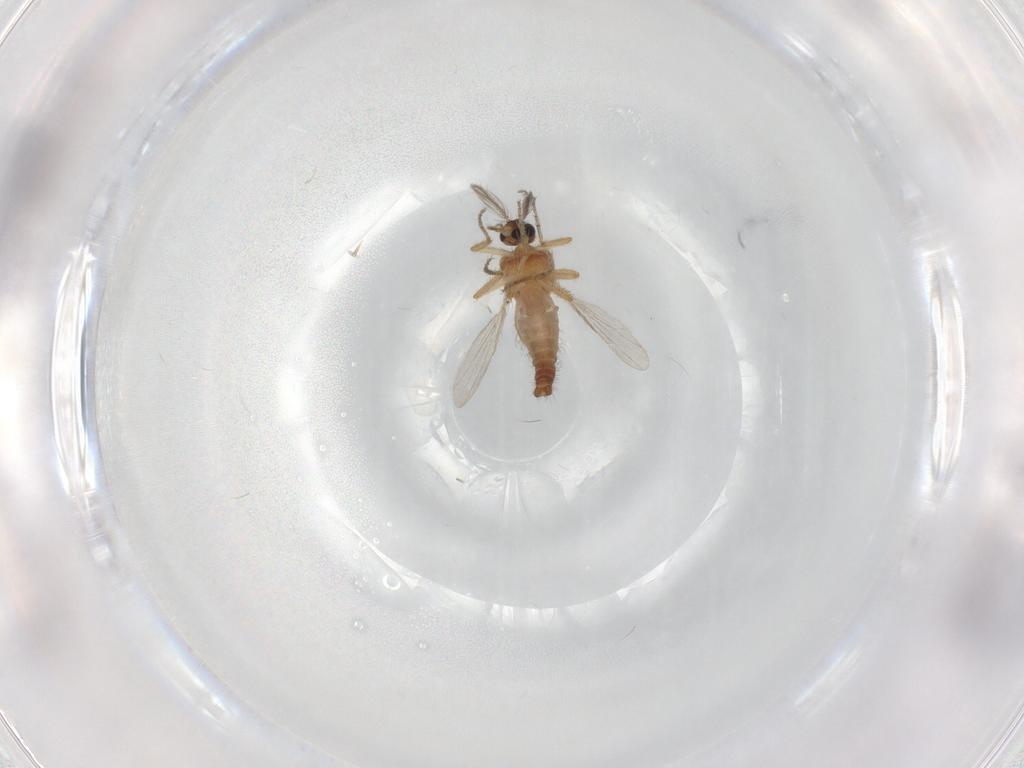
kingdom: Animalia
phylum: Arthropoda
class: Insecta
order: Diptera
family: Ceratopogonidae
